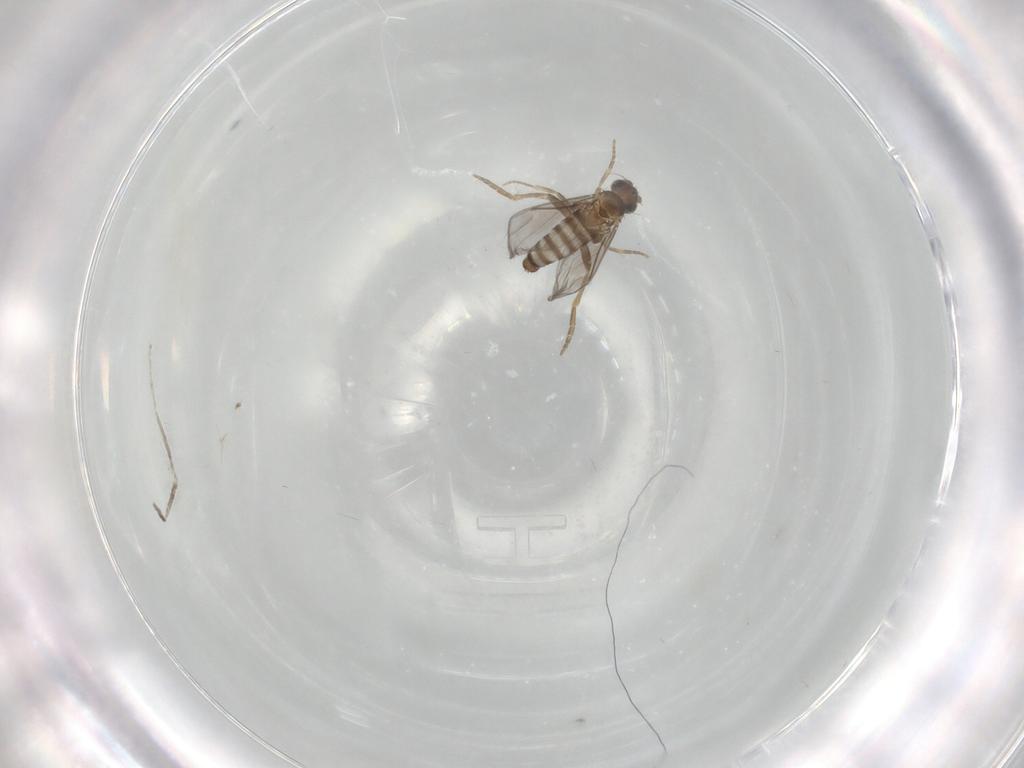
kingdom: Animalia
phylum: Arthropoda
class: Insecta
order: Diptera
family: Cecidomyiidae
